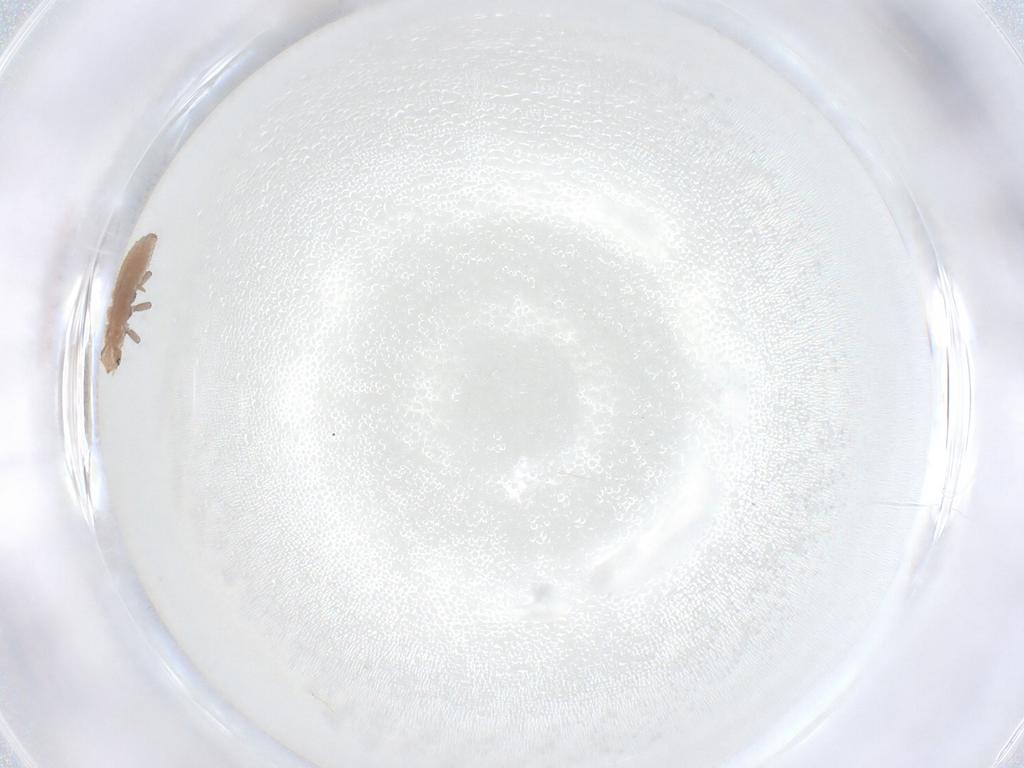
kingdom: Animalia
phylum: Arthropoda
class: Insecta
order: Coleoptera
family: Coccinellidae
